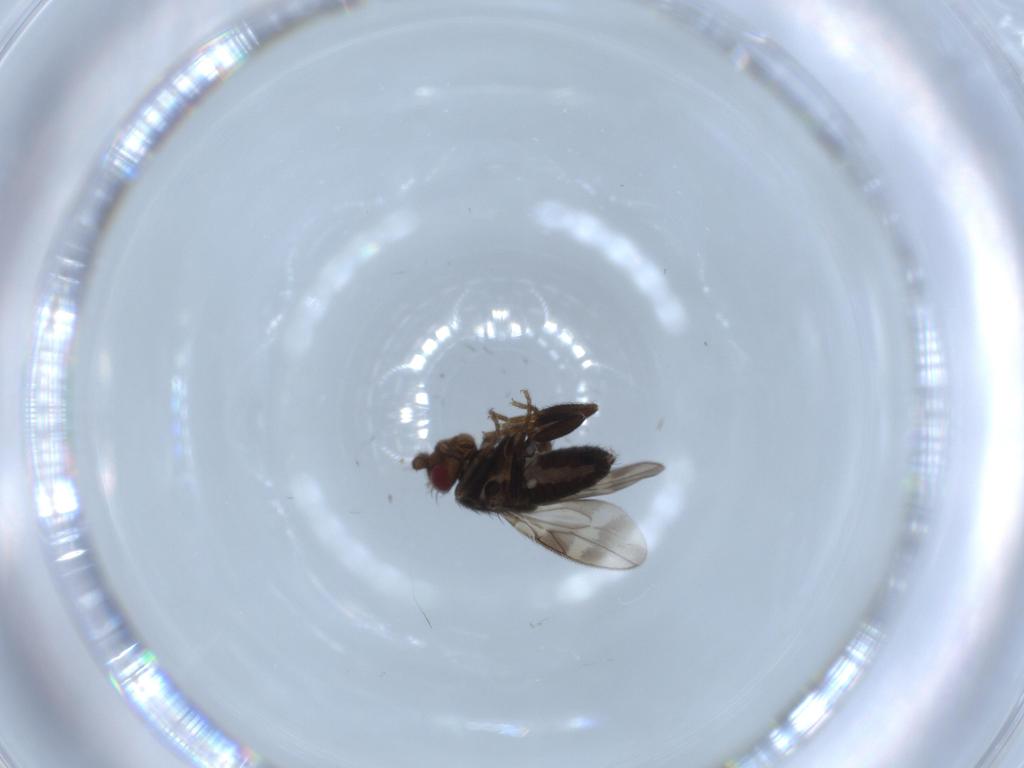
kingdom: Animalia
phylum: Arthropoda
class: Insecta
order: Diptera
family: Sphaeroceridae
